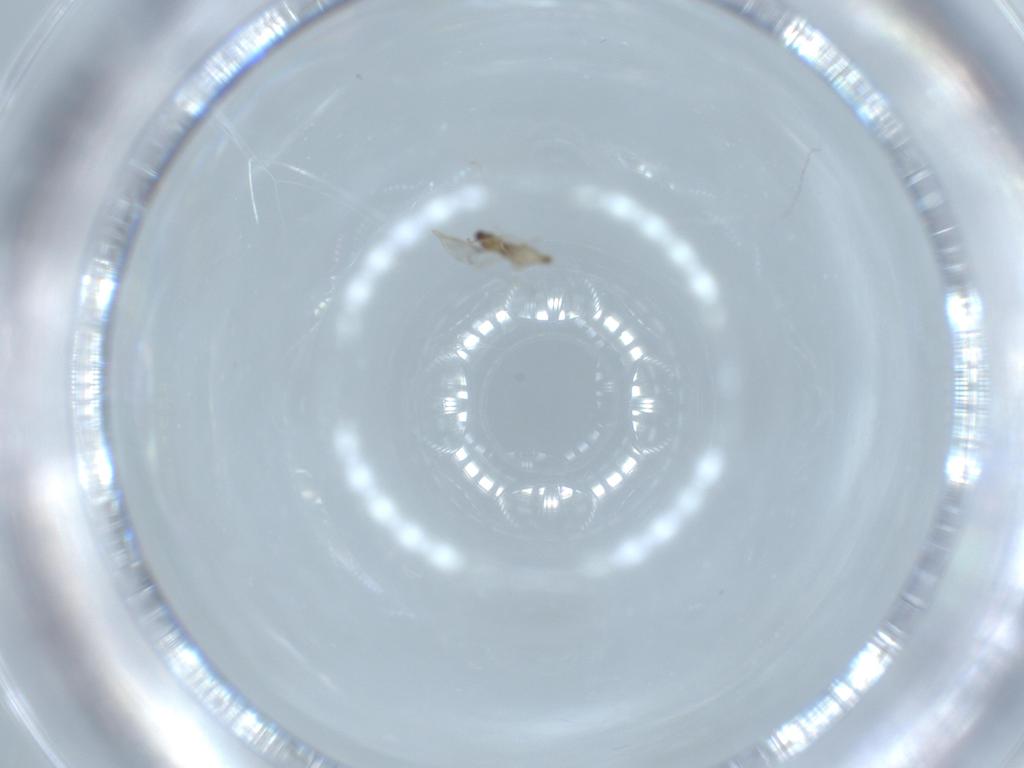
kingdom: Animalia
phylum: Arthropoda
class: Insecta
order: Diptera
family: Cecidomyiidae
